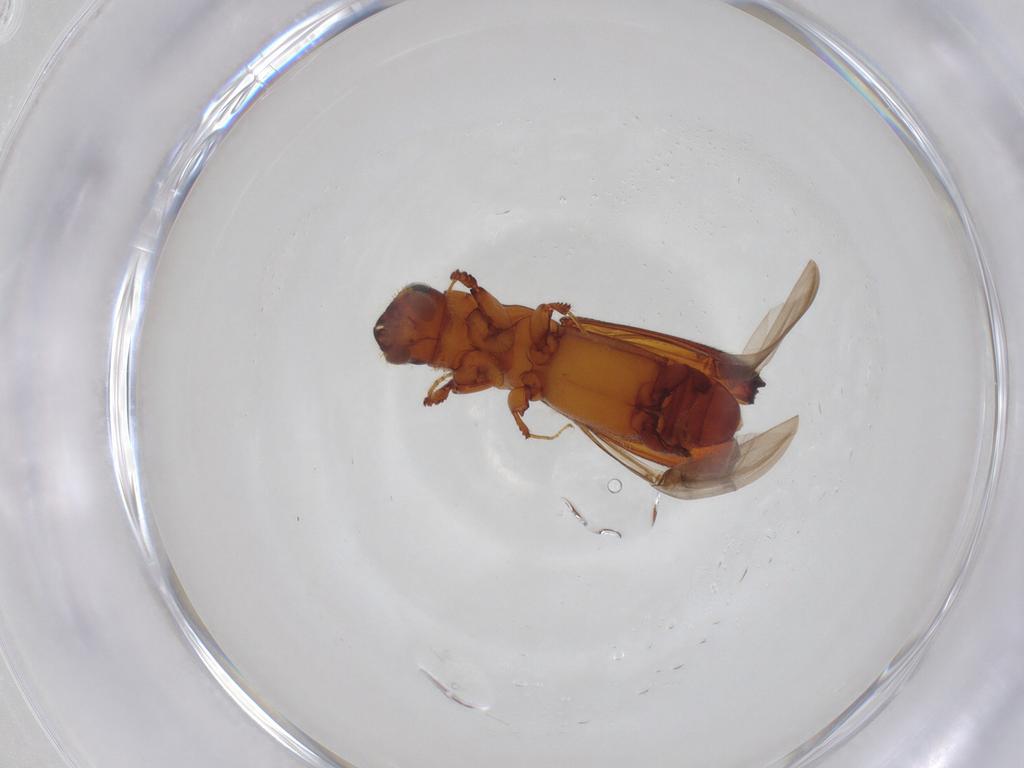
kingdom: Animalia
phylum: Arthropoda
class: Insecta
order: Coleoptera
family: Curculionidae
